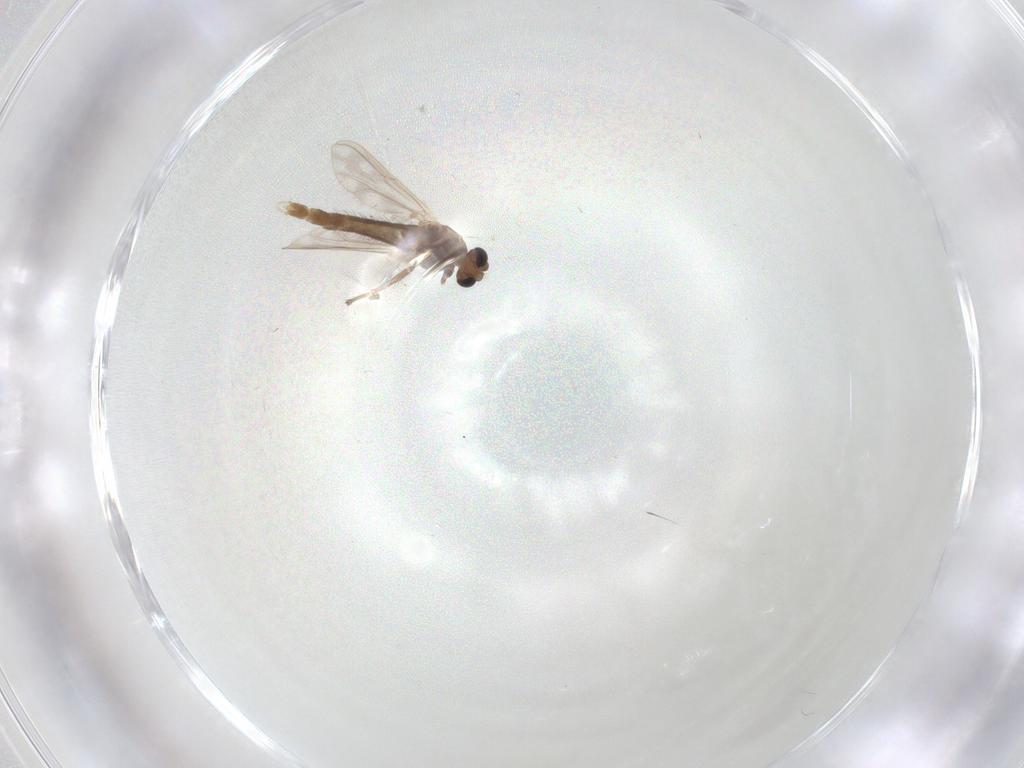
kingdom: Animalia
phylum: Arthropoda
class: Insecta
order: Diptera
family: Chironomidae
